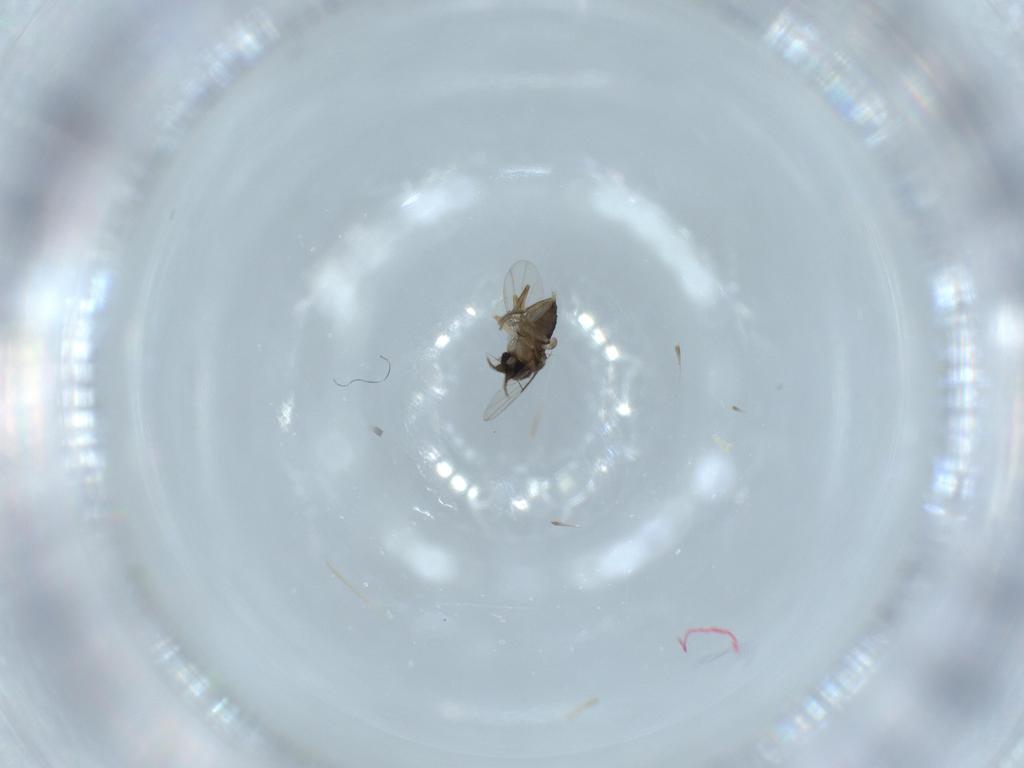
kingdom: Animalia
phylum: Arthropoda
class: Insecta
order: Diptera
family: Phoridae
